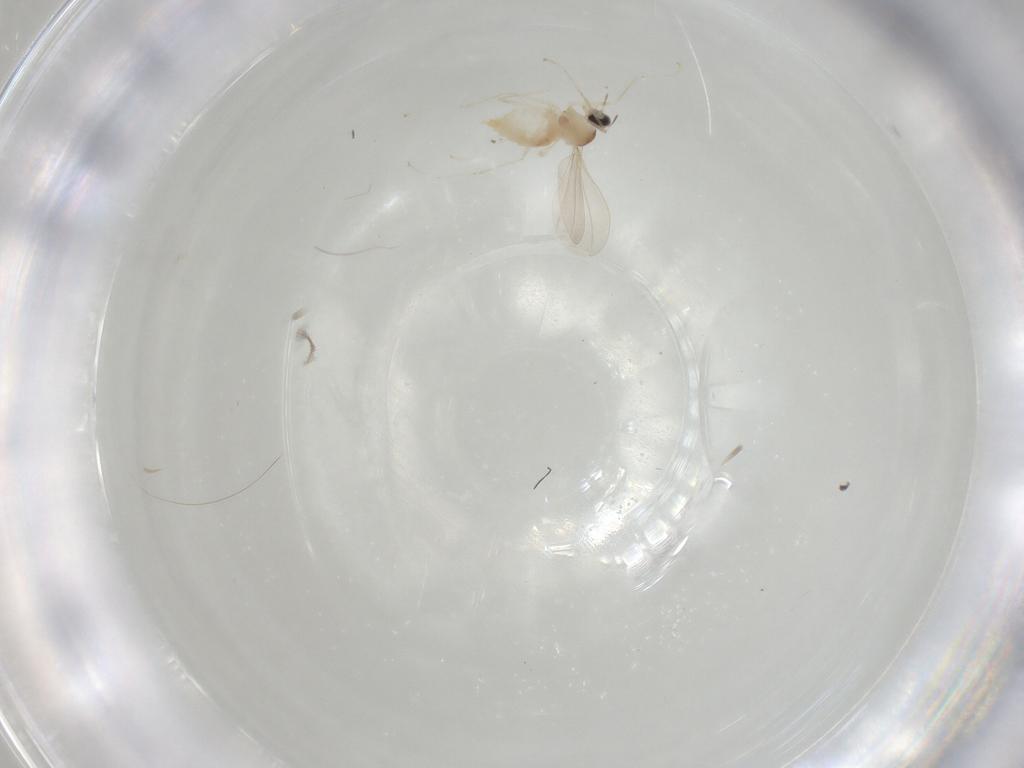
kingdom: Animalia
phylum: Arthropoda
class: Insecta
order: Diptera
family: Cecidomyiidae
